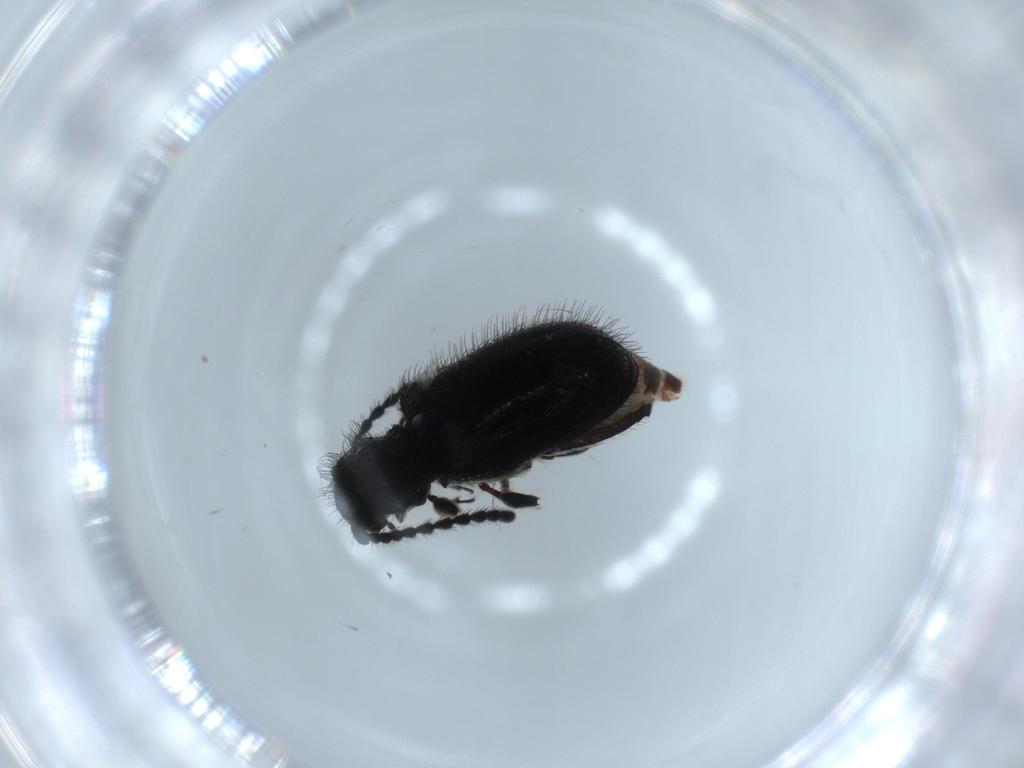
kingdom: Animalia
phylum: Arthropoda
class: Insecta
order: Coleoptera
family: Ptinidae
